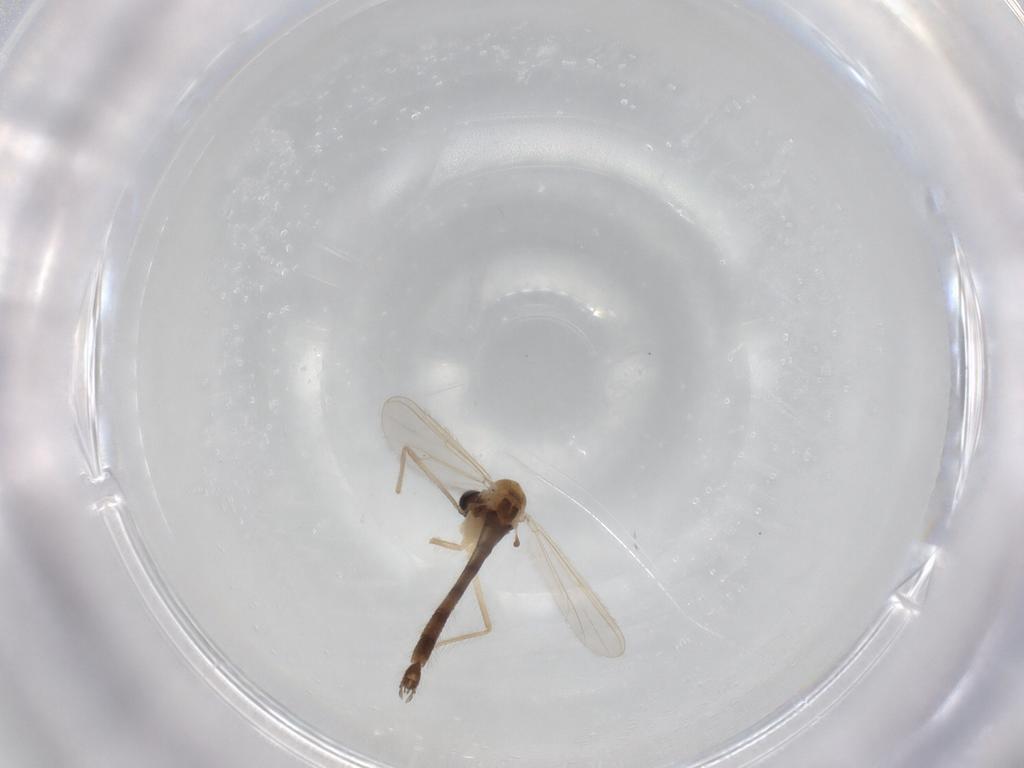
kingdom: Animalia
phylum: Arthropoda
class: Insecta
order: Diptera
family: Chironomidae
